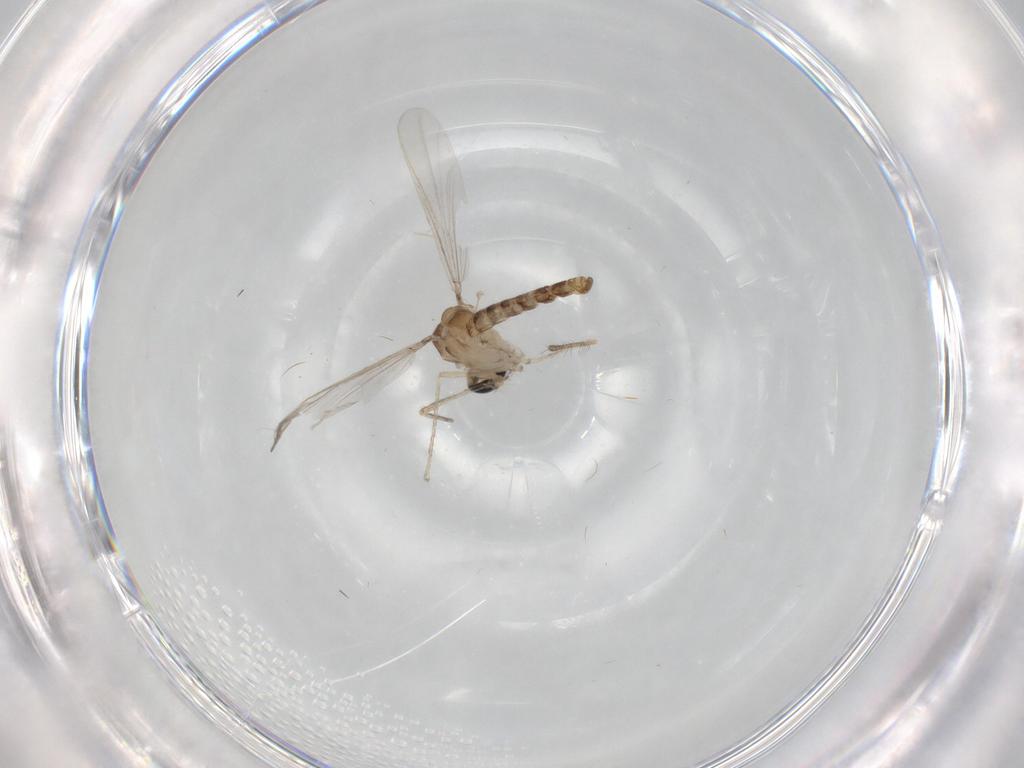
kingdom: Animalia
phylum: Arthropoda
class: Insecta
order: Diptera
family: Chironomidae
